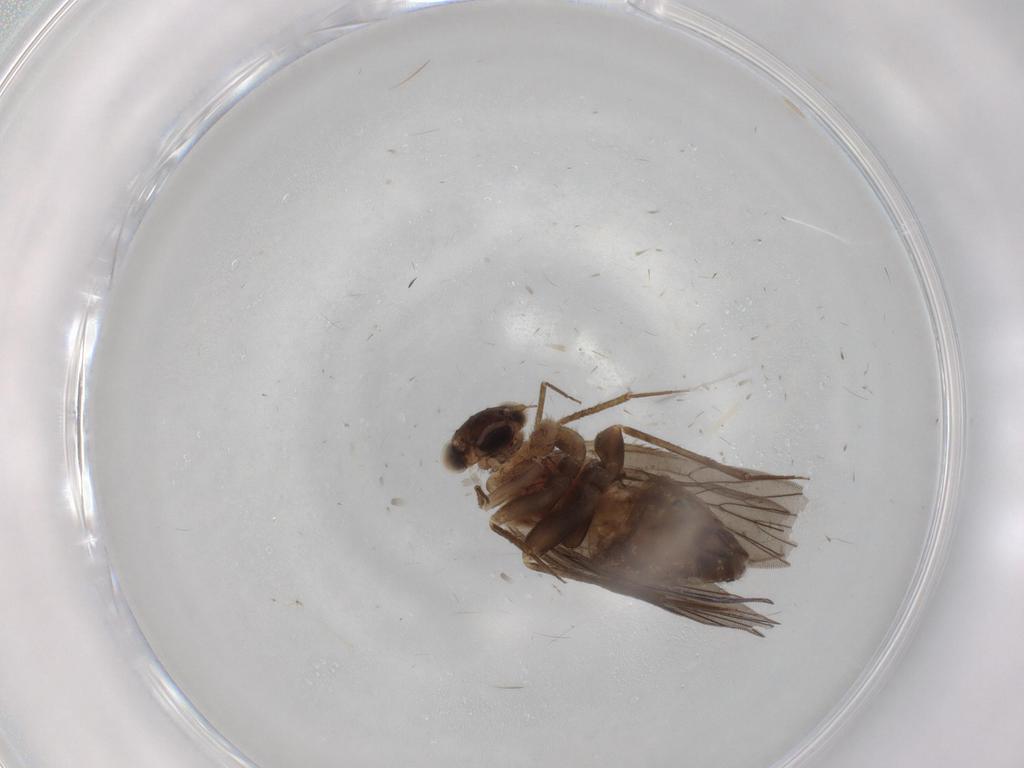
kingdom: Animalia
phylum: Arthropoda
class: Insecta
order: Psocodea
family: Lepidopsocidae
